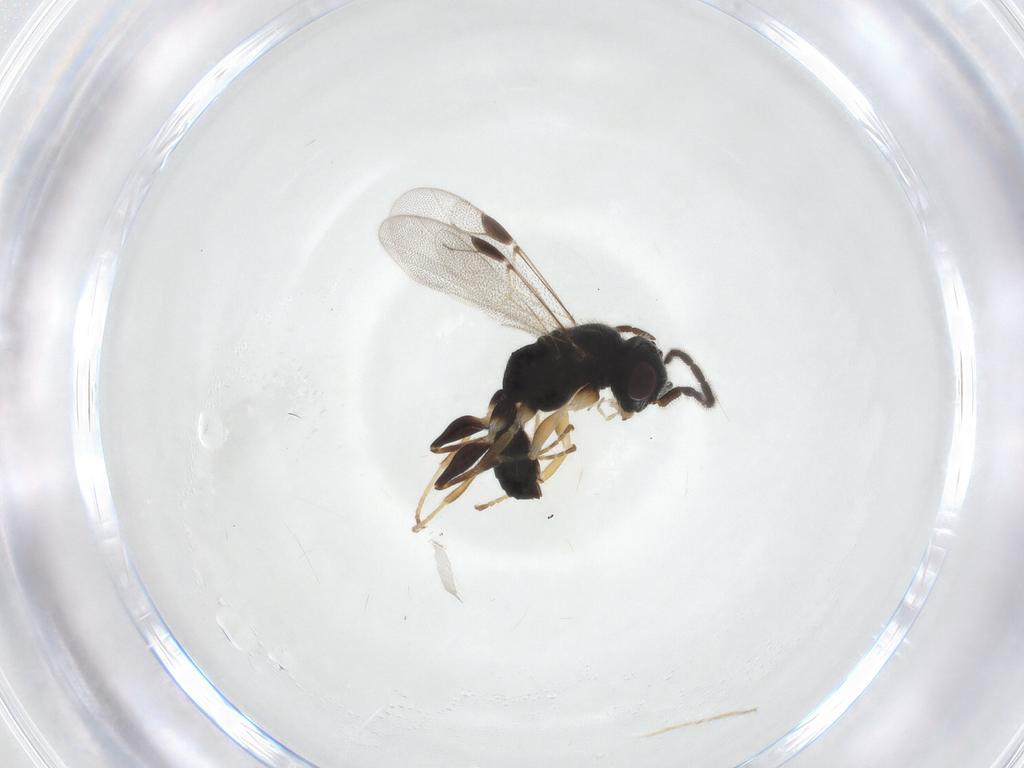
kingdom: Animalia
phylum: Arthropoda
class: Insecta
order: Hymenoptera
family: Dryinidae
